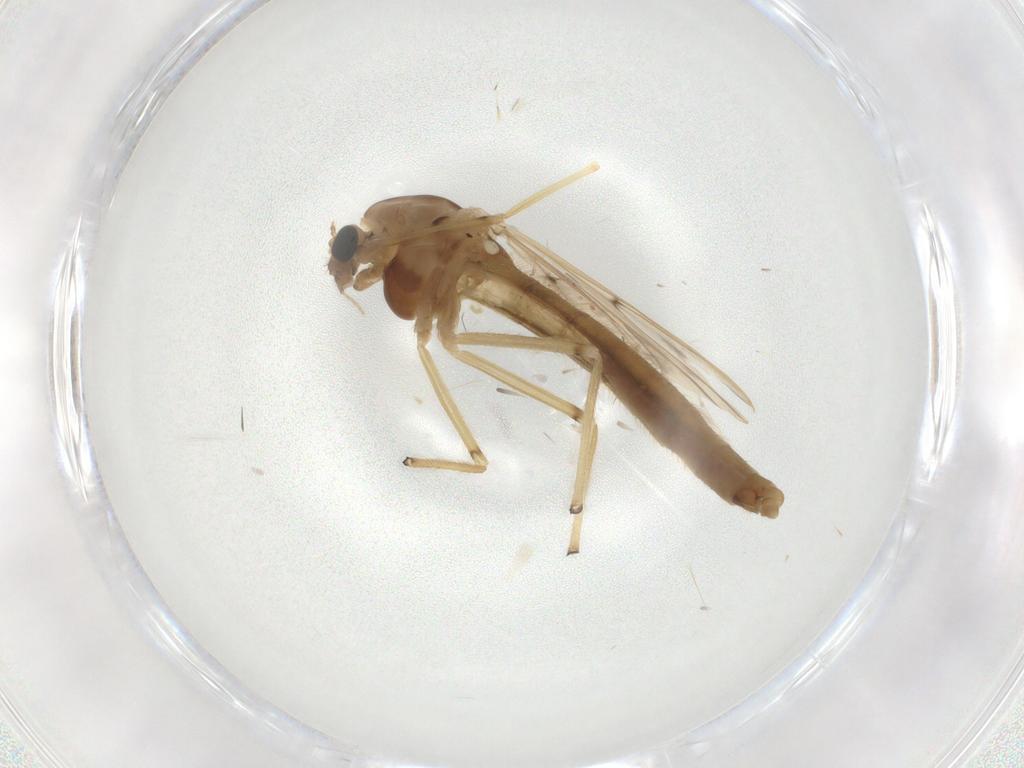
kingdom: Animalia
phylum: Arthropoda
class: Insecta
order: Diptera
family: Chironomidae
